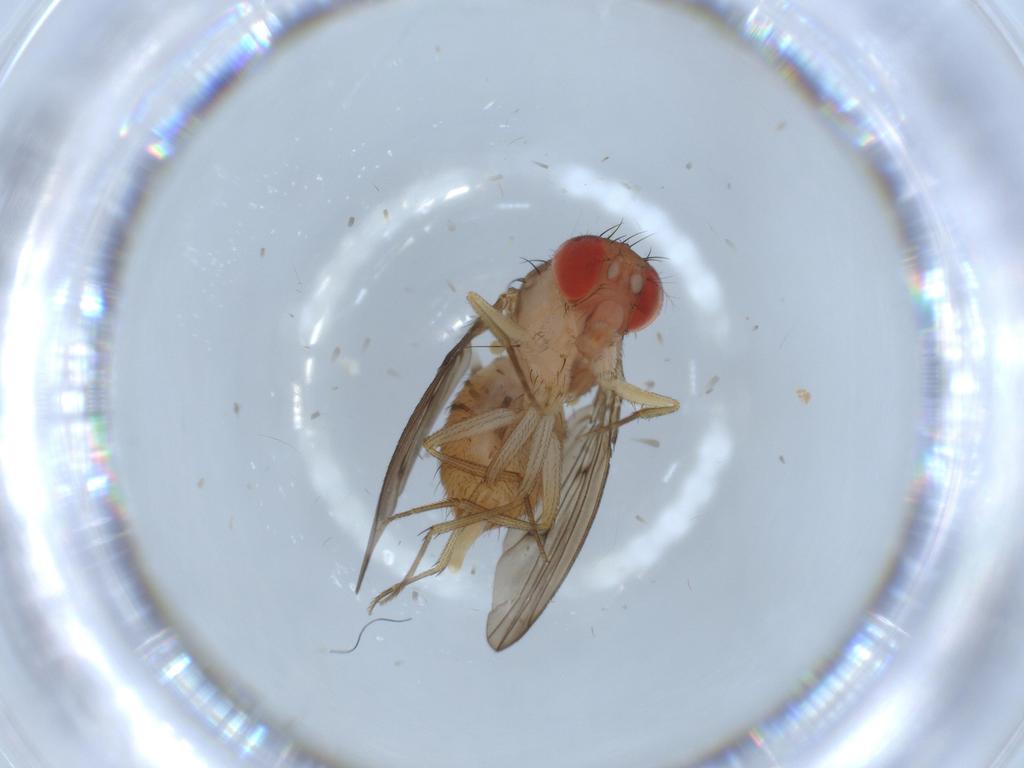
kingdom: Animalia
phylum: Arthropoda
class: Insecta
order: Diptera
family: Drosophilidae
